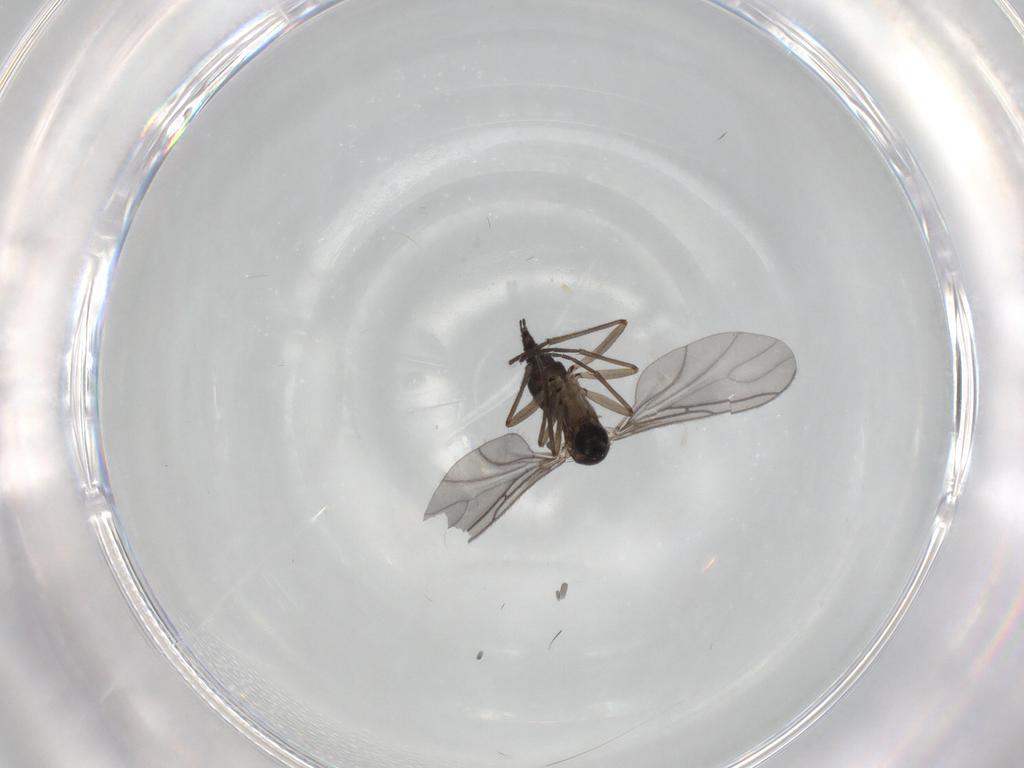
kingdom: Animalia
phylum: Arthropoda
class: Insecta
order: Diptera
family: Sciaridae
